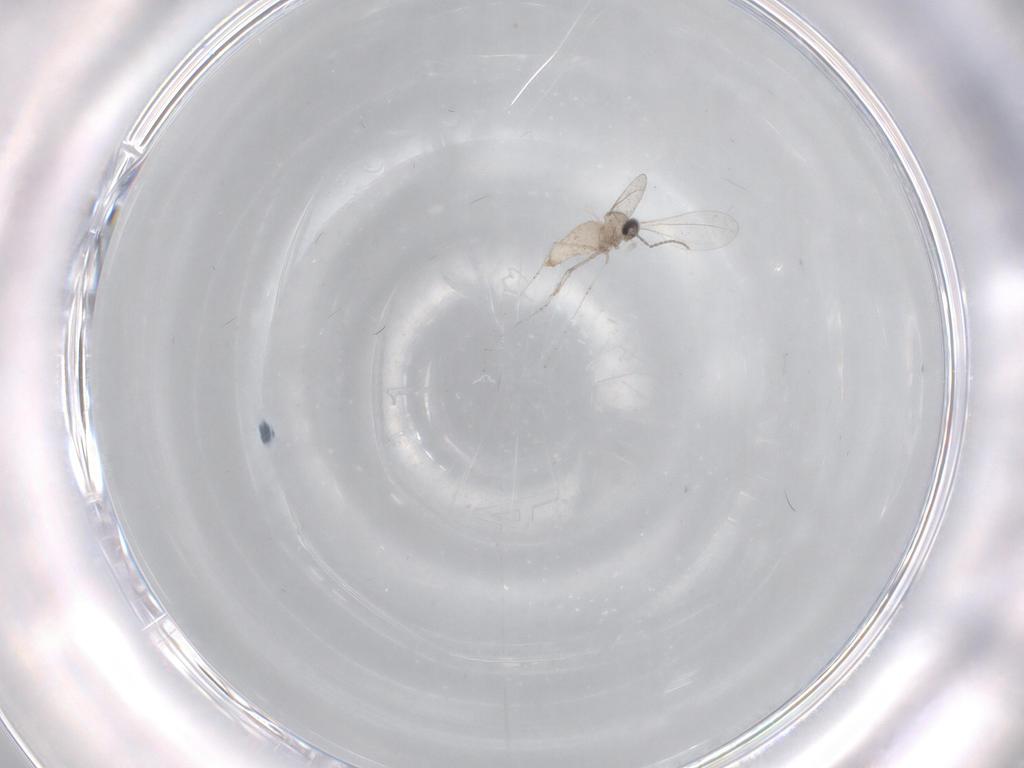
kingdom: Animalia
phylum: Arthropoda
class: Insecta
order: Diptera
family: Cecidomyiidae
